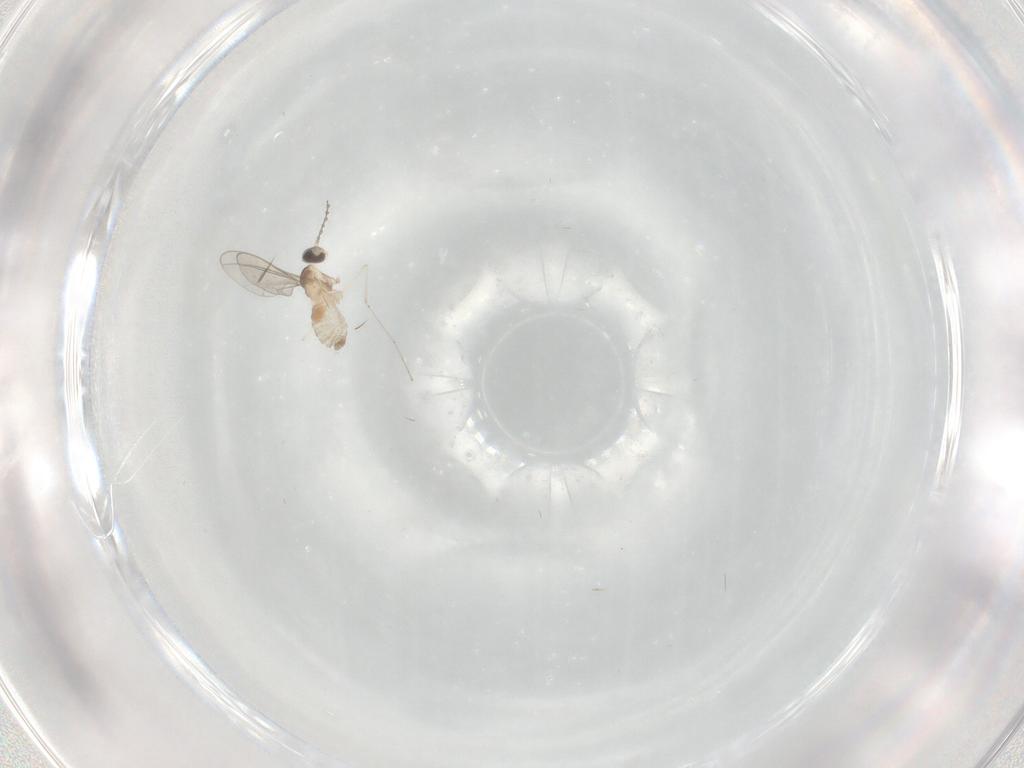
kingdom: Animalia
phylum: Arthropoda
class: Insecta
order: Diptera
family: Cecidomyiidae
